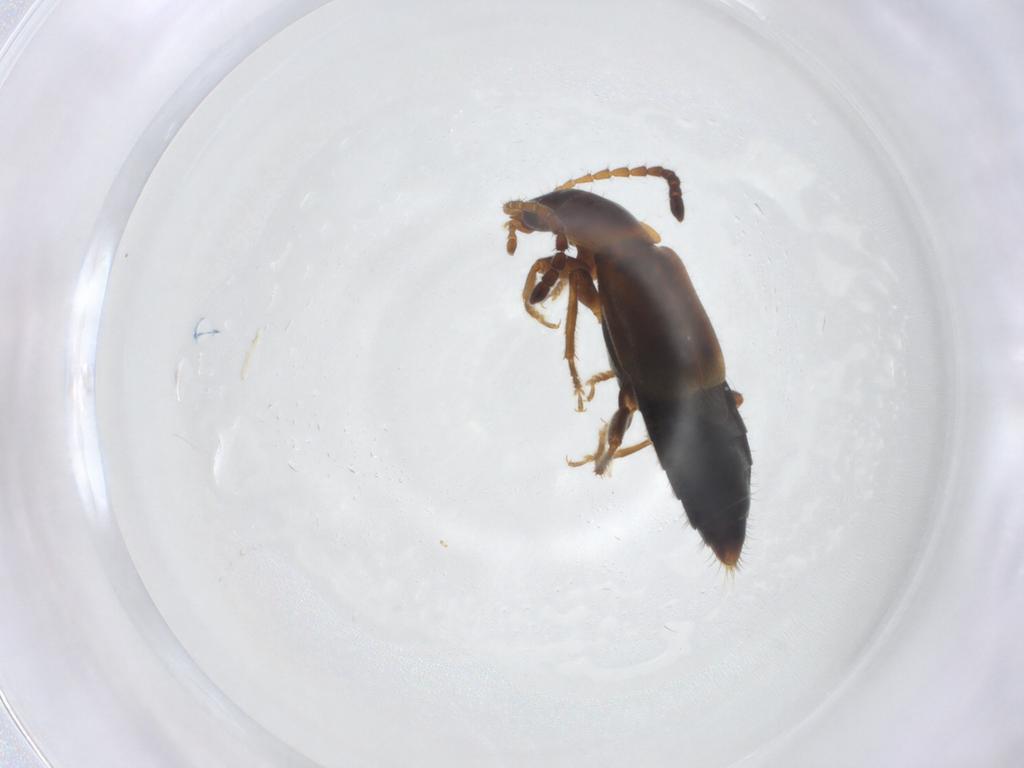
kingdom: Animalia
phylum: Arthropoda
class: Insecta
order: Coleoptera
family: Staphylinidae
